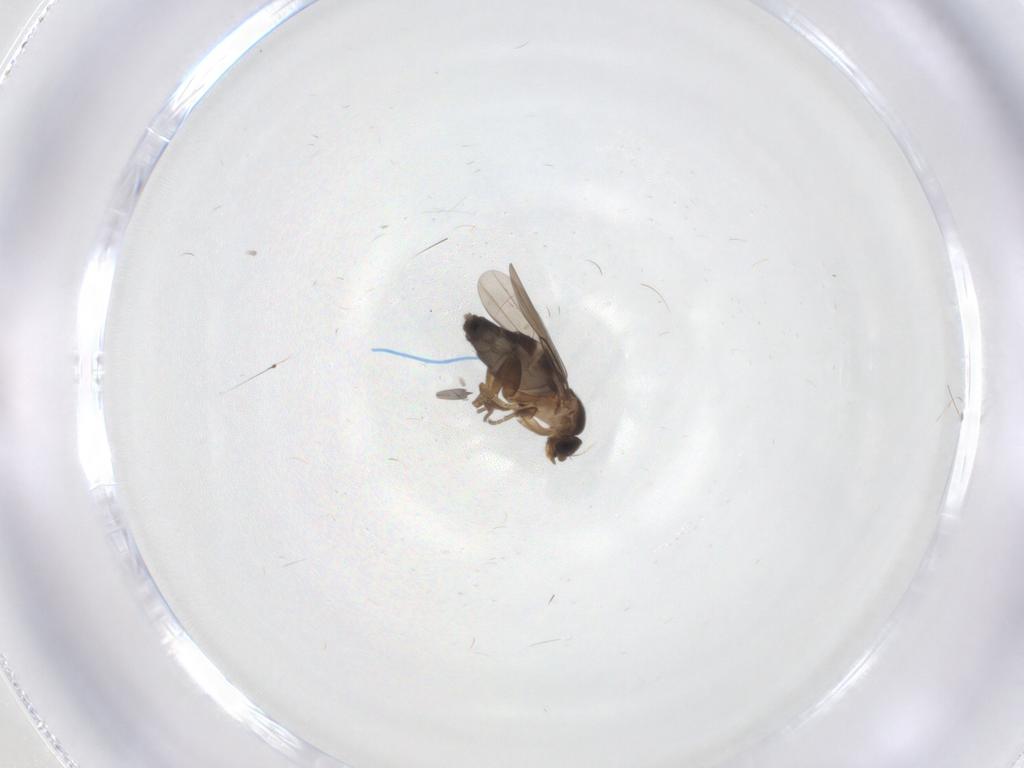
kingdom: Animalia
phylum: Arthropoda
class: Insecta
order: Diptera
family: Phoridae
